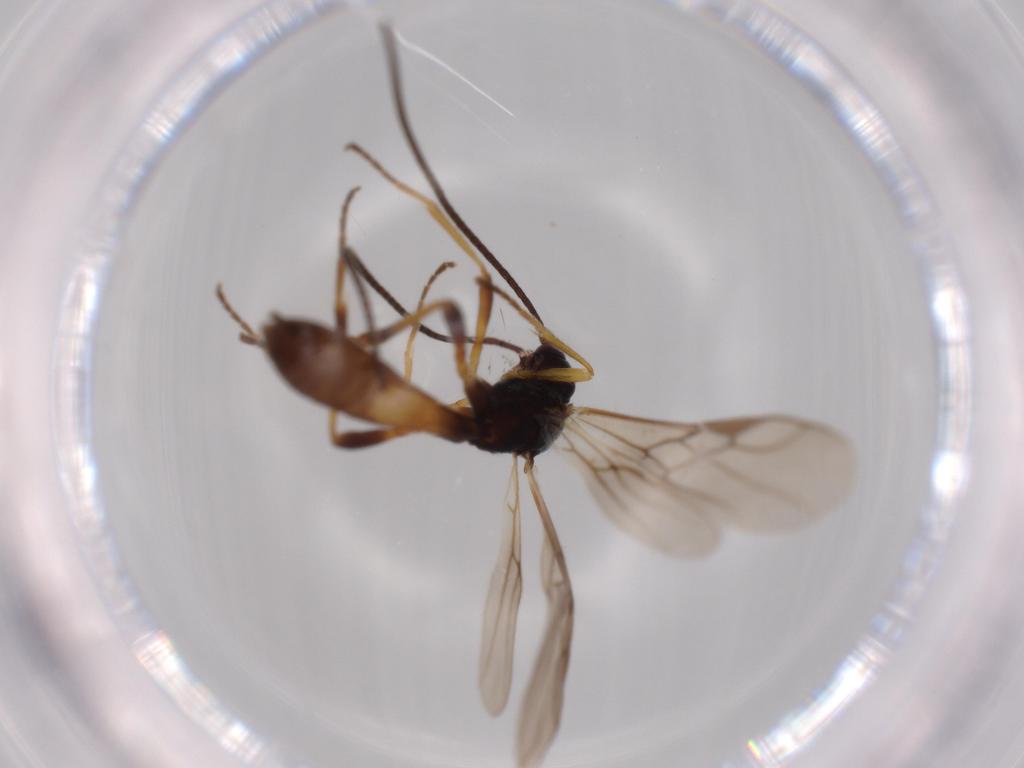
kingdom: Animalia
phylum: Arthropoda
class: Insecta
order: Hymenoptera
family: Braconidae
